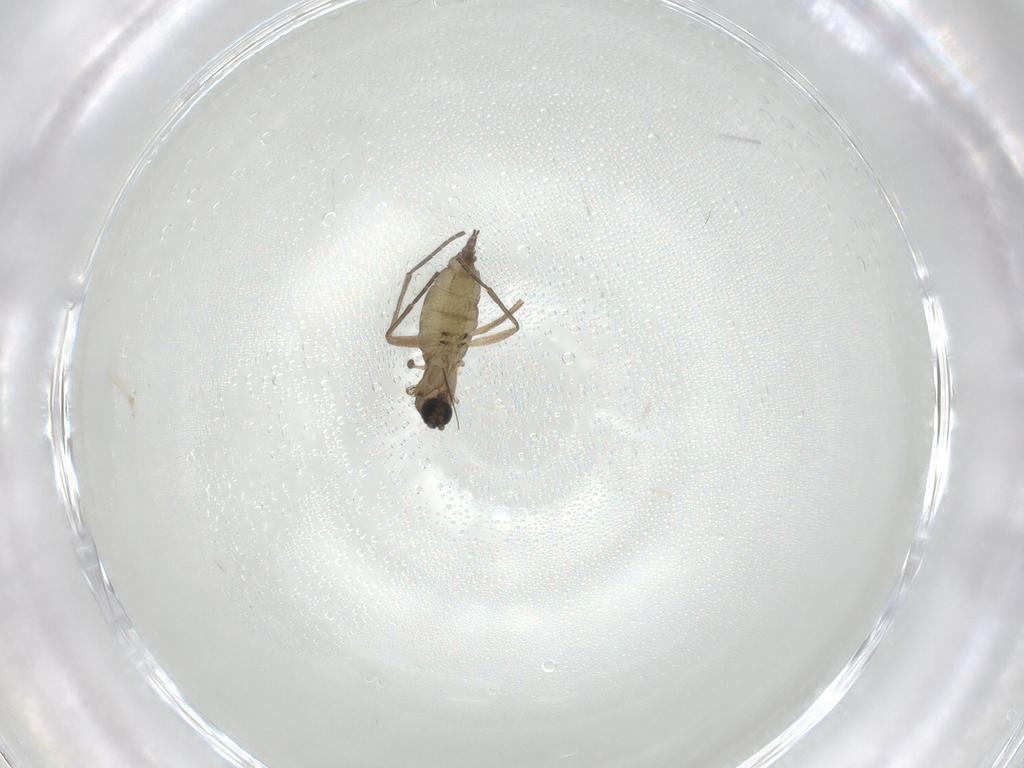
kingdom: Animalia
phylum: Arthropoda
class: Insecta
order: Diptera
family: Sciaridae
